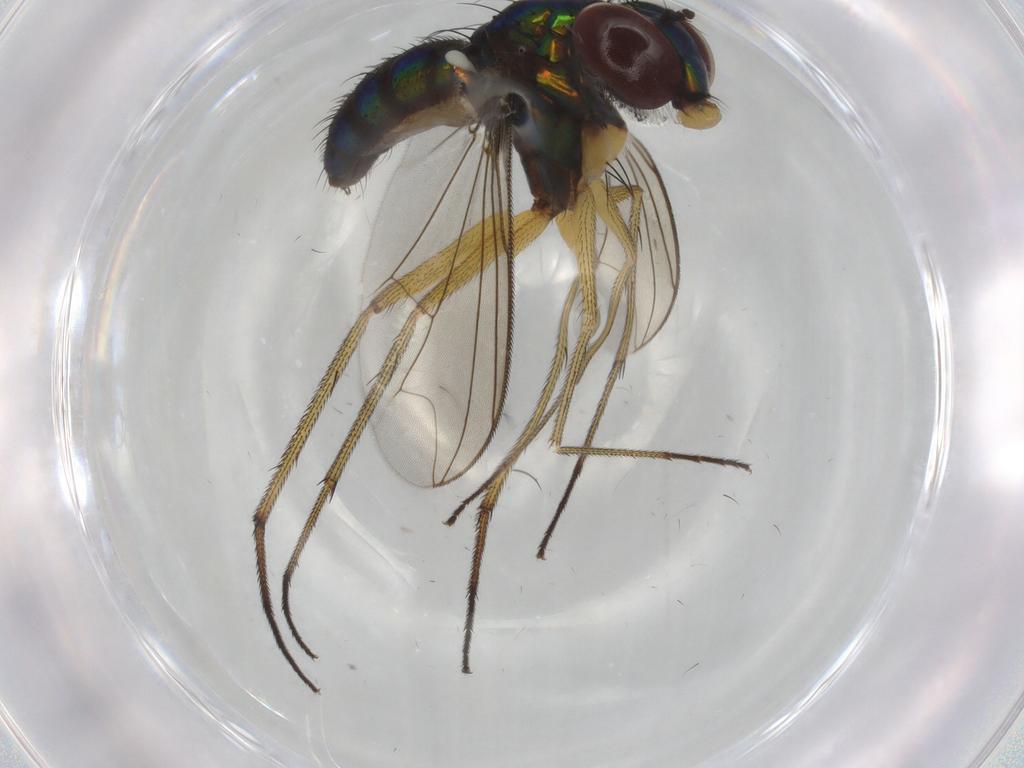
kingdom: Animalia
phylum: Arthropoda
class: Insecta
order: Diptera
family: Dolichopodidae
